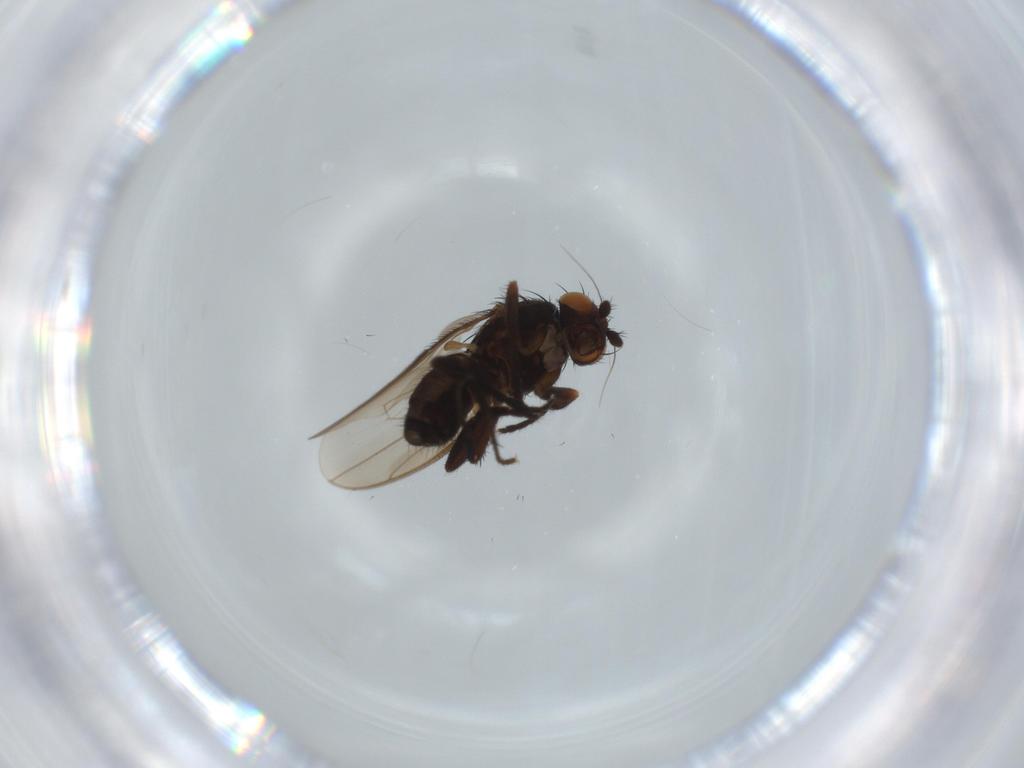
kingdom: Animalia
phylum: Arthropoda
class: Insecta
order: Diptera
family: Sphaeroceridae
